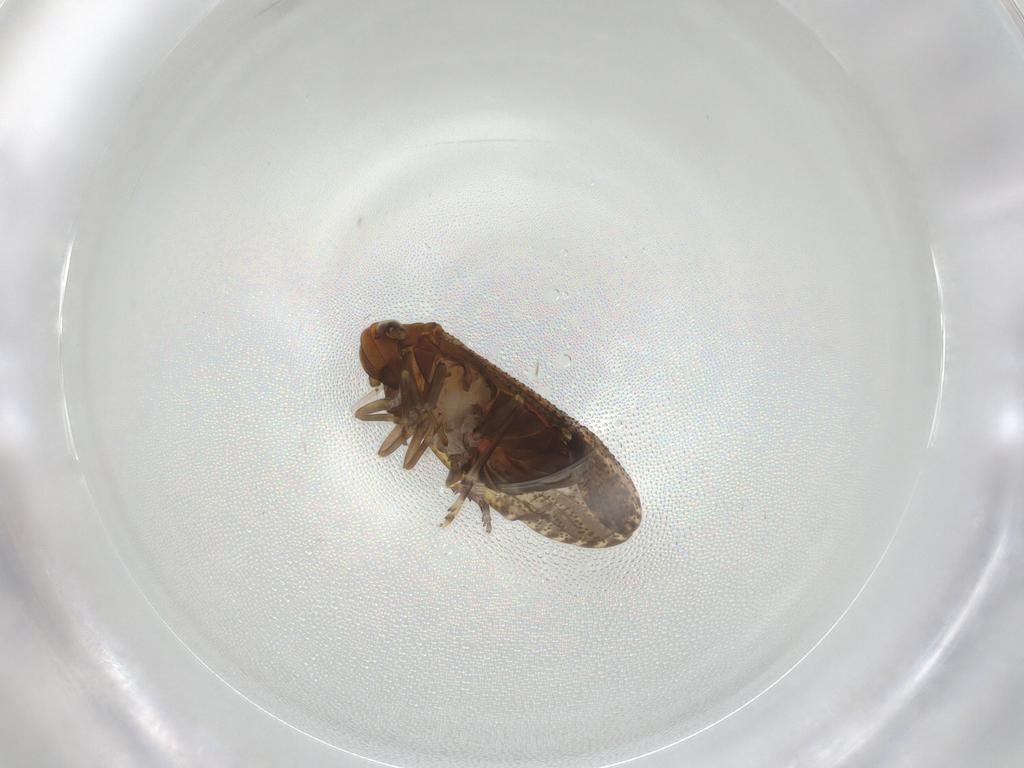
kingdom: Animalia
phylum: Arthropoda
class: Insecta
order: Hemiptera
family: Delphacidae
